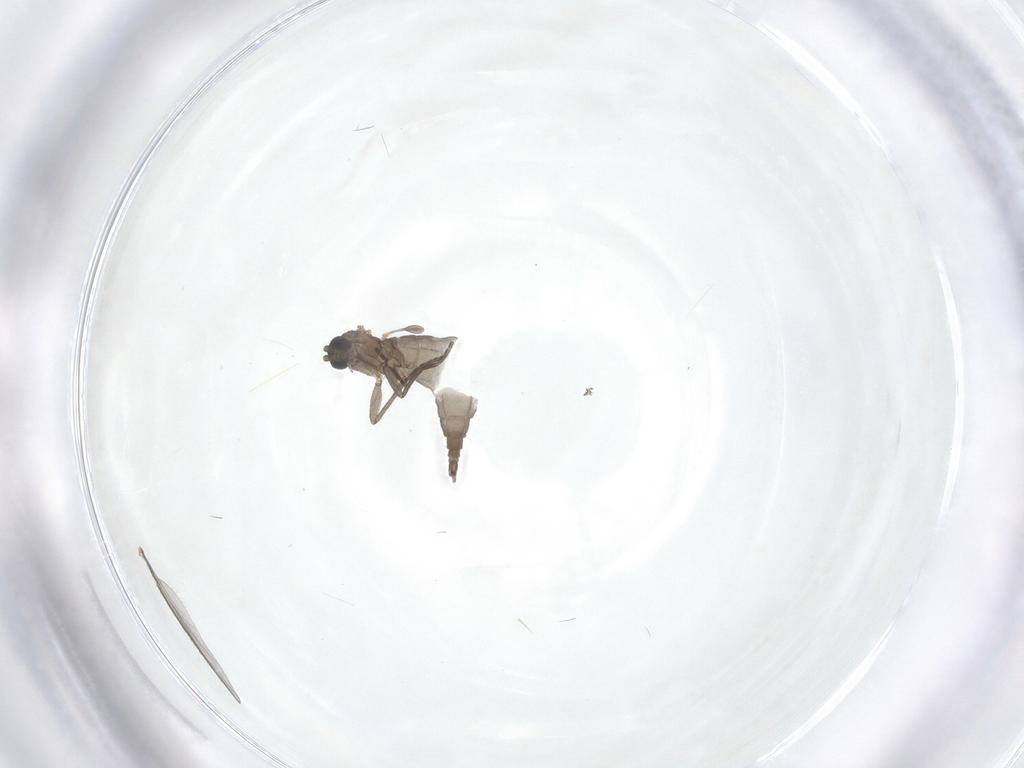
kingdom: Animalia
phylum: Arthropoda
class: Insecta
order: Diptera
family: Sciaridae
